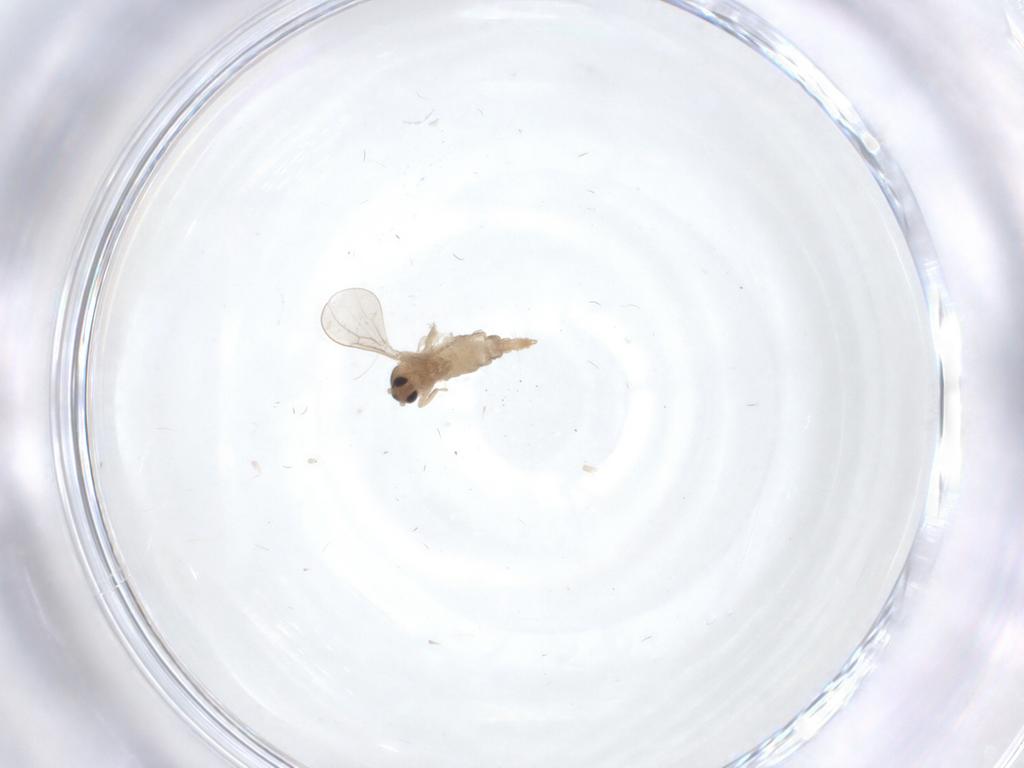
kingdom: Animalia
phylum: Arthropoda
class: Insecta
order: Diptera
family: Cecidomyiidae
